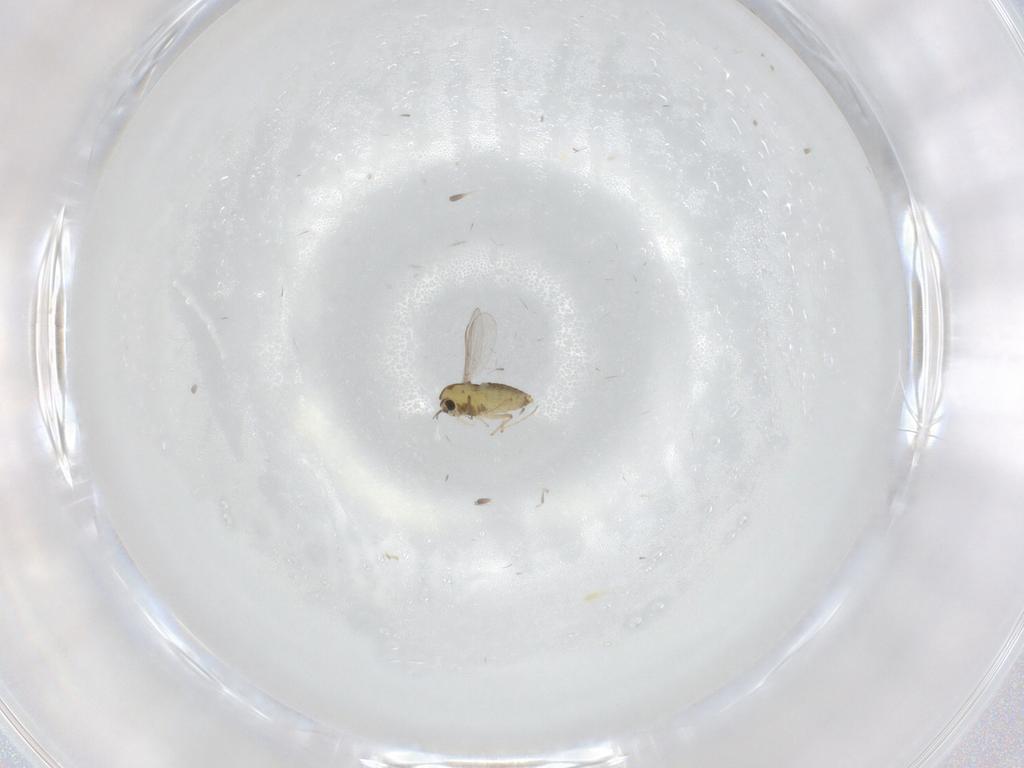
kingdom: Animalia
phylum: Arthropoda
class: Insecta
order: Diptera
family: Chironomidae
